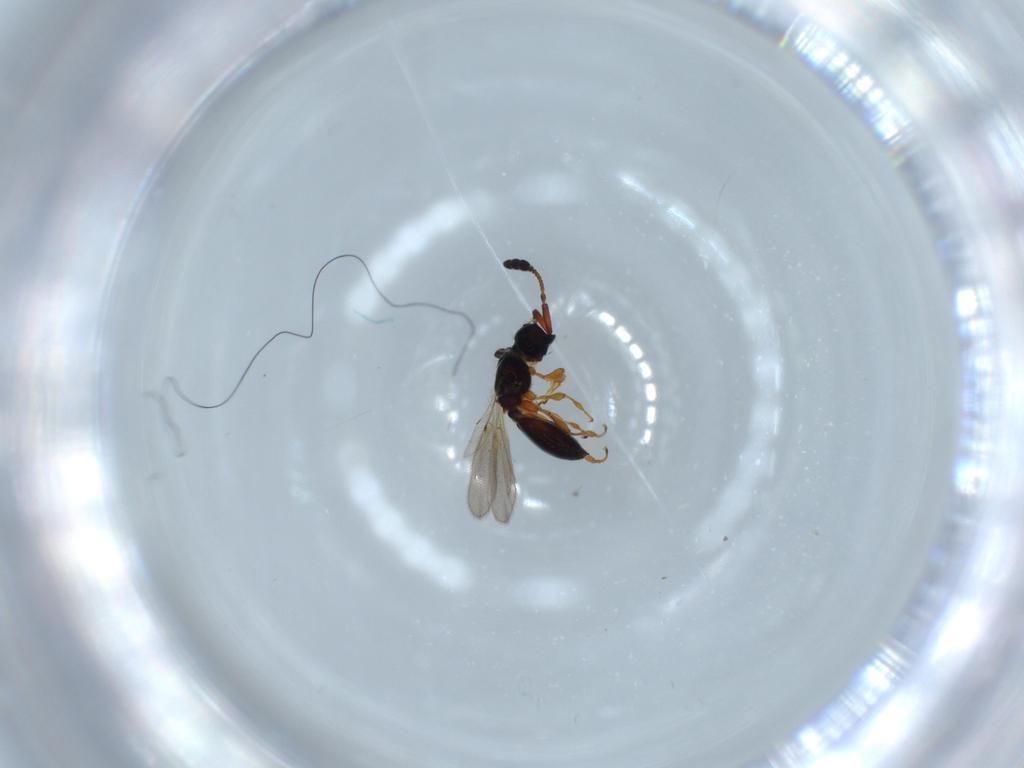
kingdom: Animalia
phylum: Arthropoda
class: Insecta
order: Hymenoptera
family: Diapriidae
